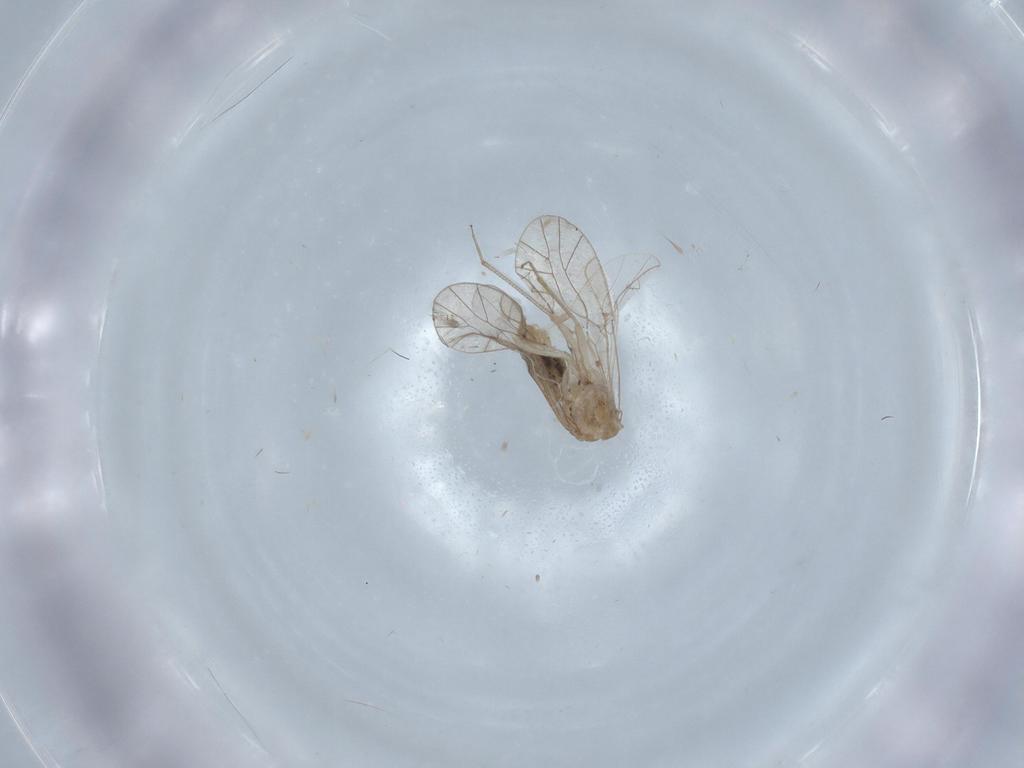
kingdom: Animalia
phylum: Arthropoda
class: Insecta
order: Psocodea
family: Lachesillidae
